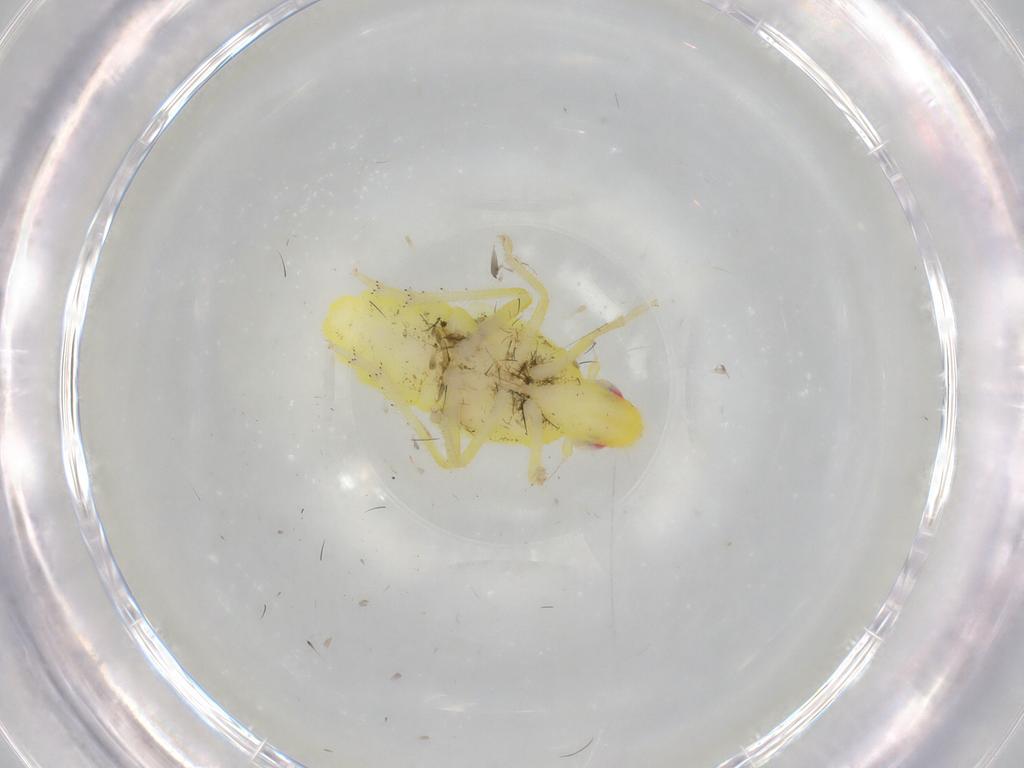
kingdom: Animalia
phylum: Arthropoda
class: Insecta
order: Hemiptera
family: Tropiduchidae
